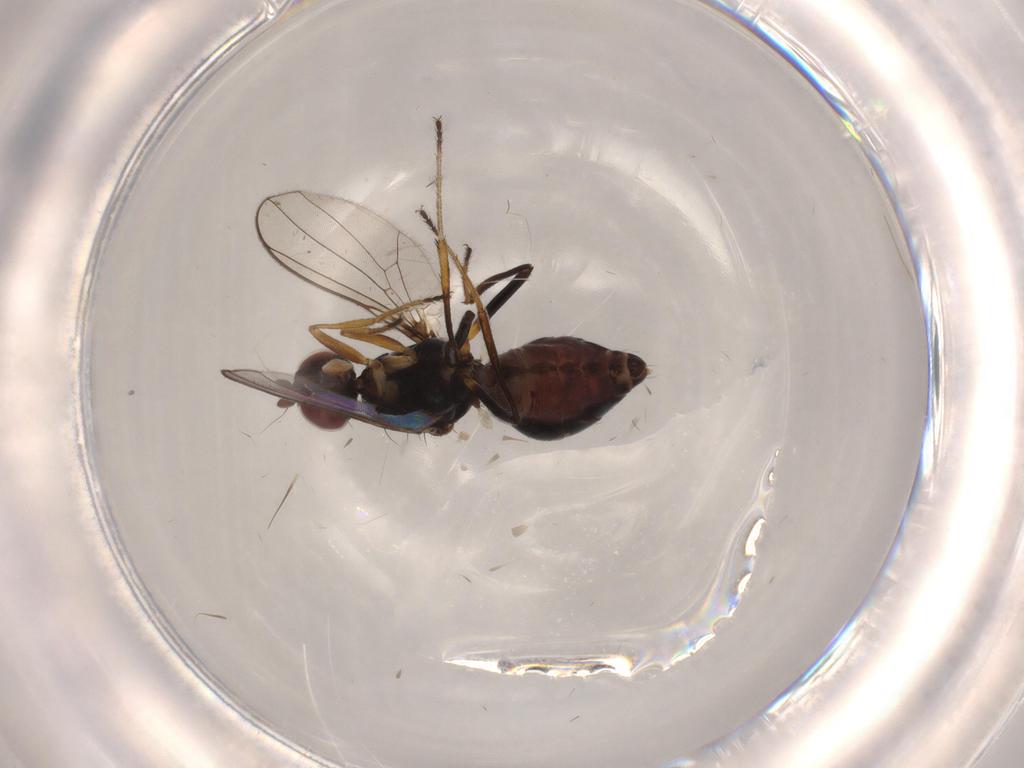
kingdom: Animalia
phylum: Arthropoda
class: Insecta
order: Diptera
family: Sepsidae
